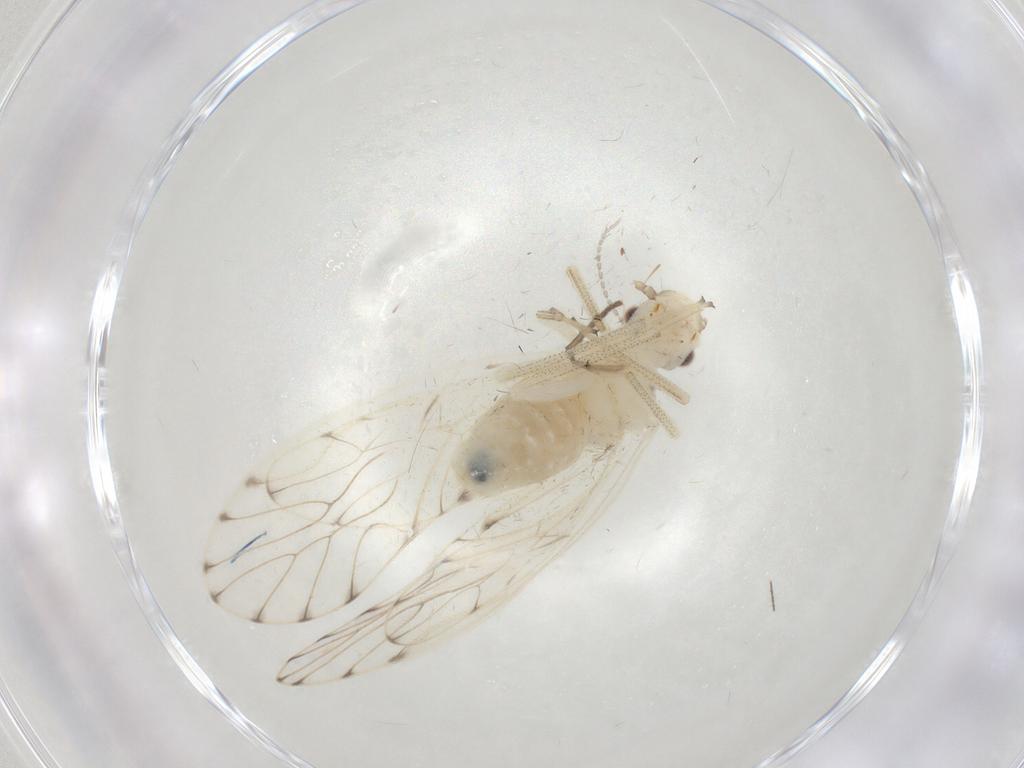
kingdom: Animalia
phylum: Arthropoda
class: Insecta
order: Psocodea
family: Philotarsidae
